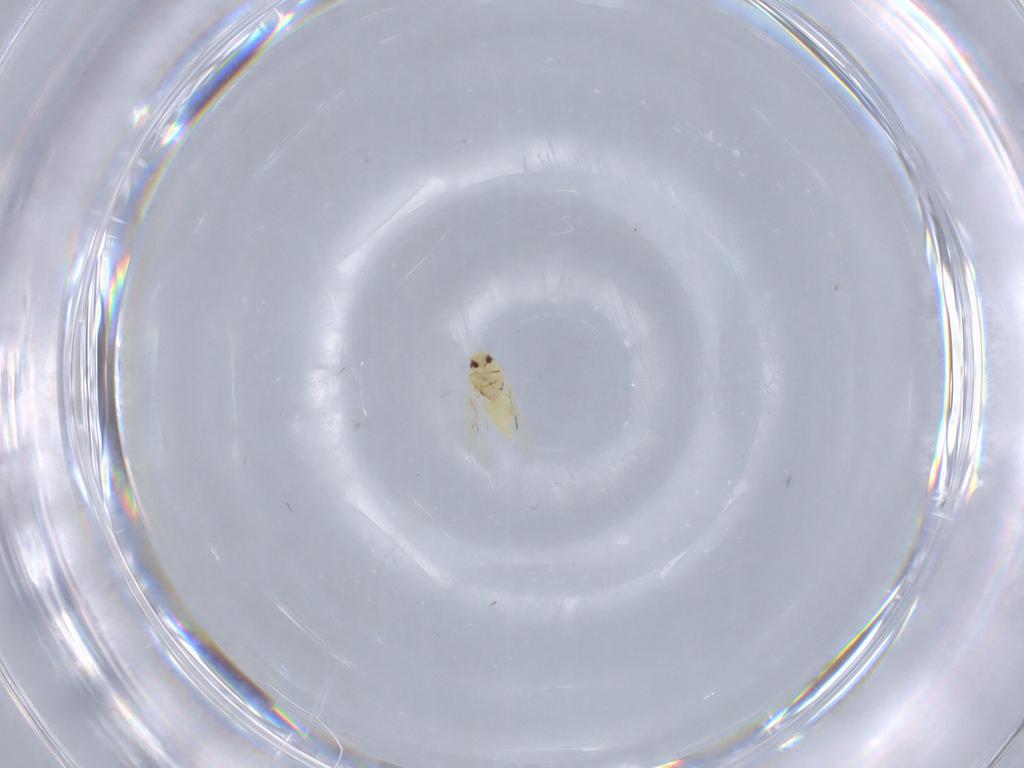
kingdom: Animalia
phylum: Arthropoda
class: Insecta
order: Hemiptera
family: Aleyrodidae
